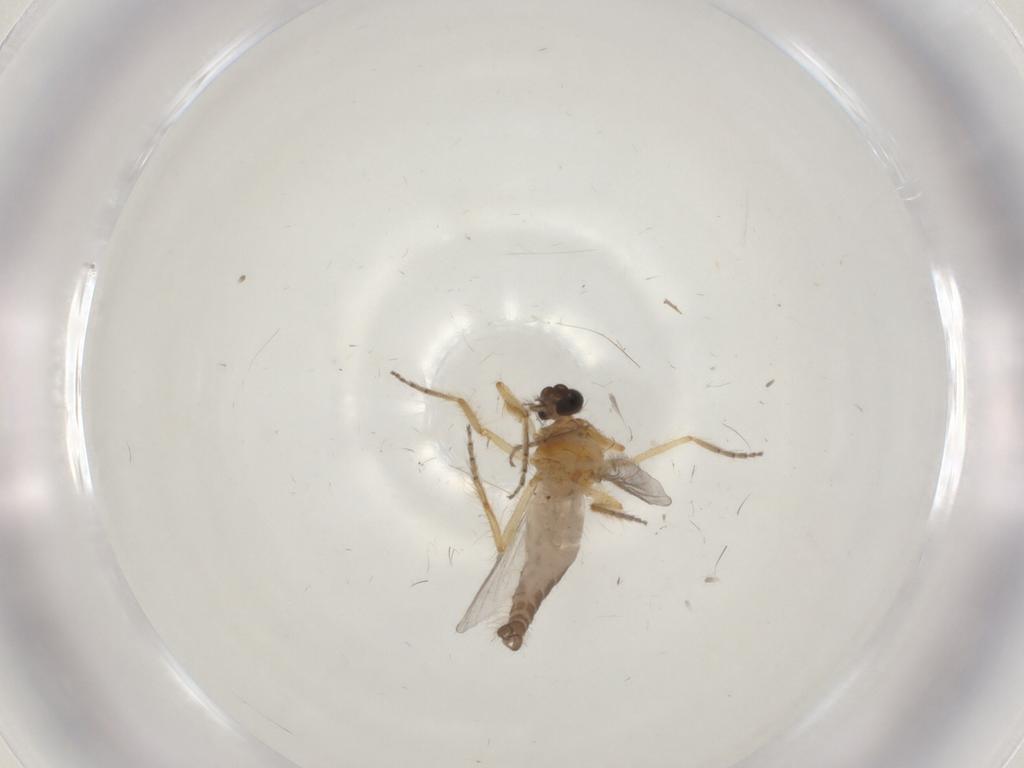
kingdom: Animalia
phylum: Arthropoda
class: Insecta
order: Diptera
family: Ceratopogonidae
